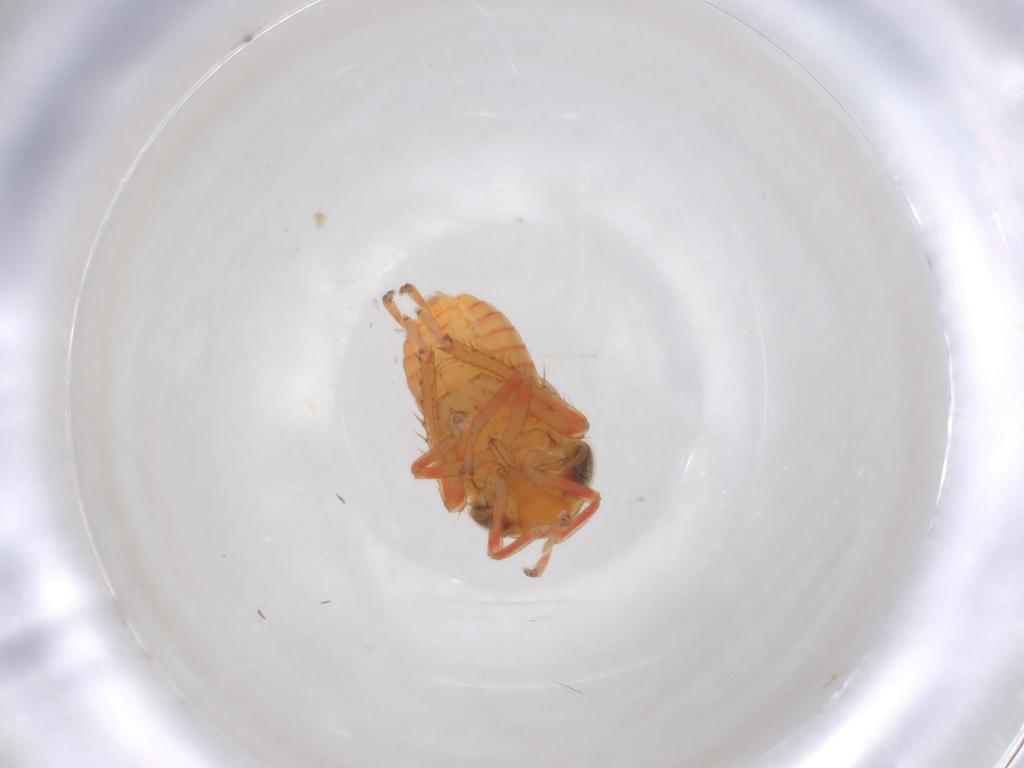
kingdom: Animalia
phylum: Arthropoda
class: Insecta
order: Hemiptera
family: Cicadellidae
